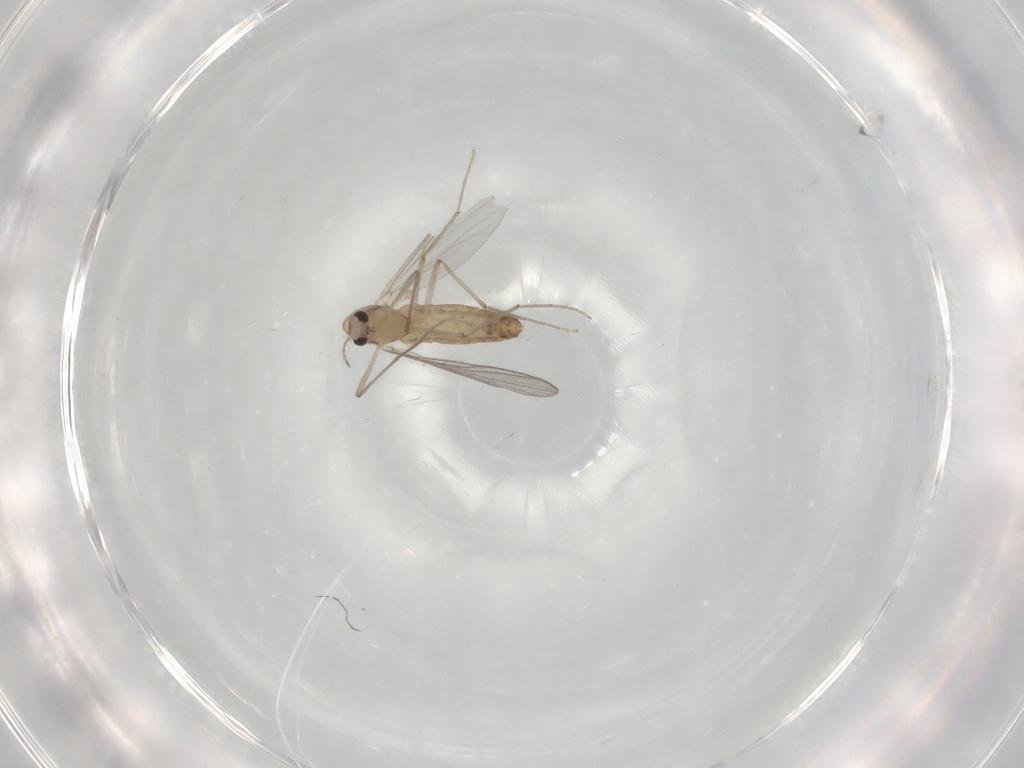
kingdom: Animalia
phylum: Arthropoda
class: Insecta
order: Diptera
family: Chironomidae
